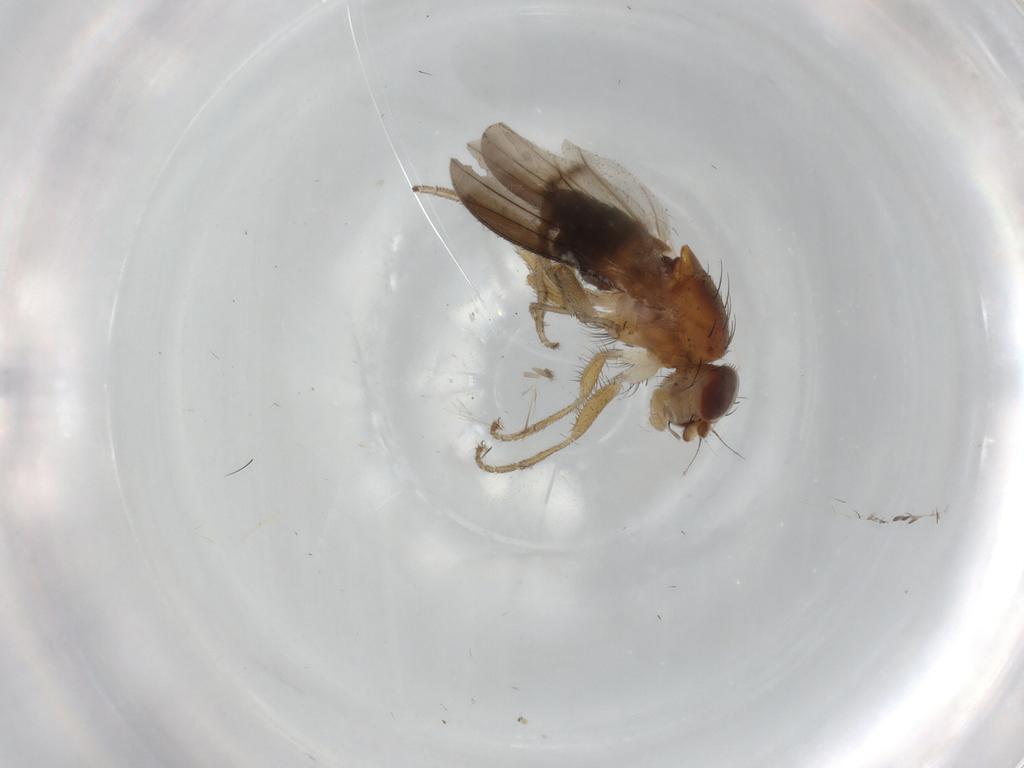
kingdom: Animalia
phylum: Arthropoda
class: Insecta
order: Diptera
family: Heleomyzidae
